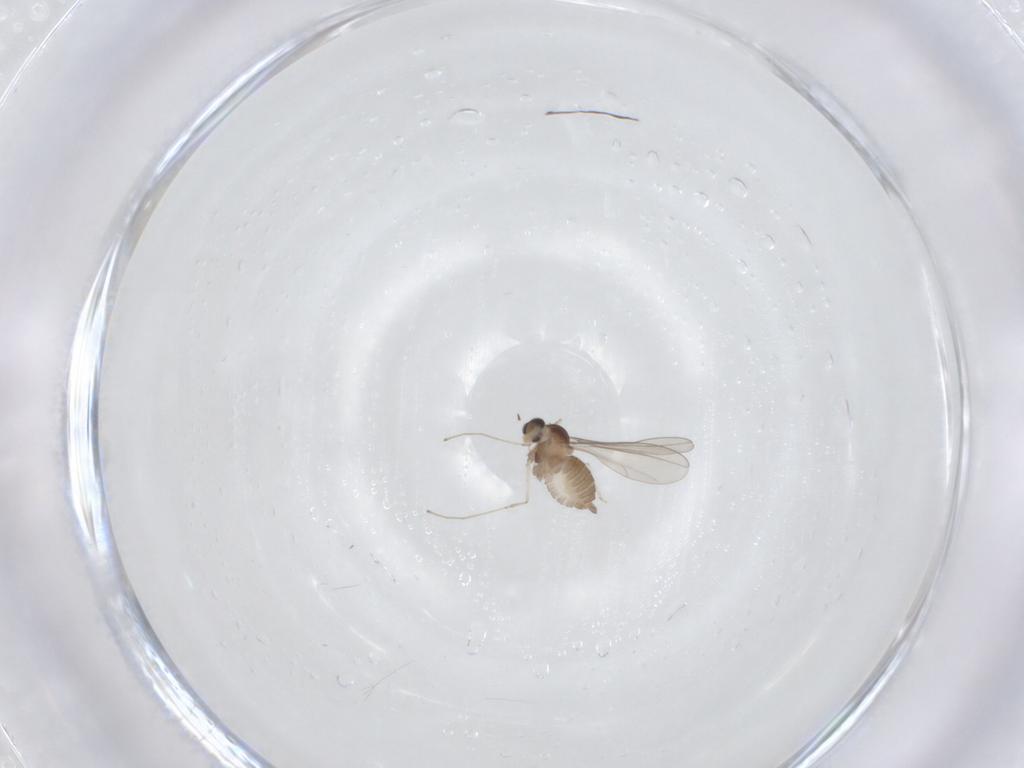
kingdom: Animalia
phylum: Arthropoda
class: Insecta
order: Diptera
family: Cecidomyiidae
